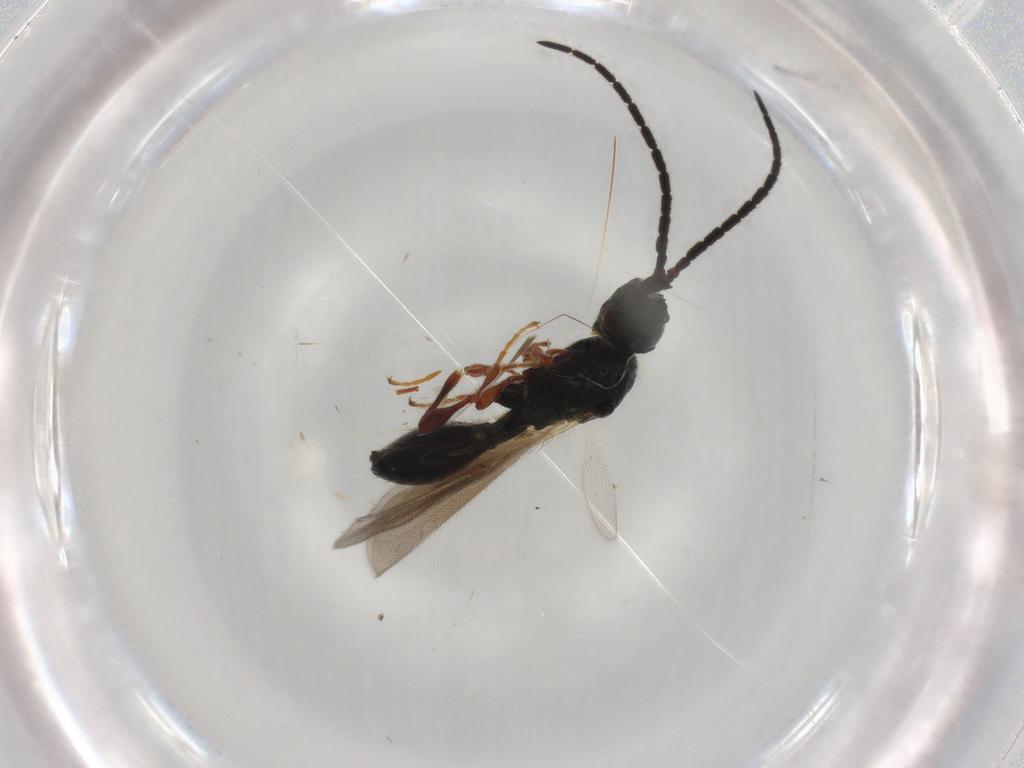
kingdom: Animalia
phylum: Arthropoda
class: Insecta
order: Hymenoptera
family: Diapriidae
